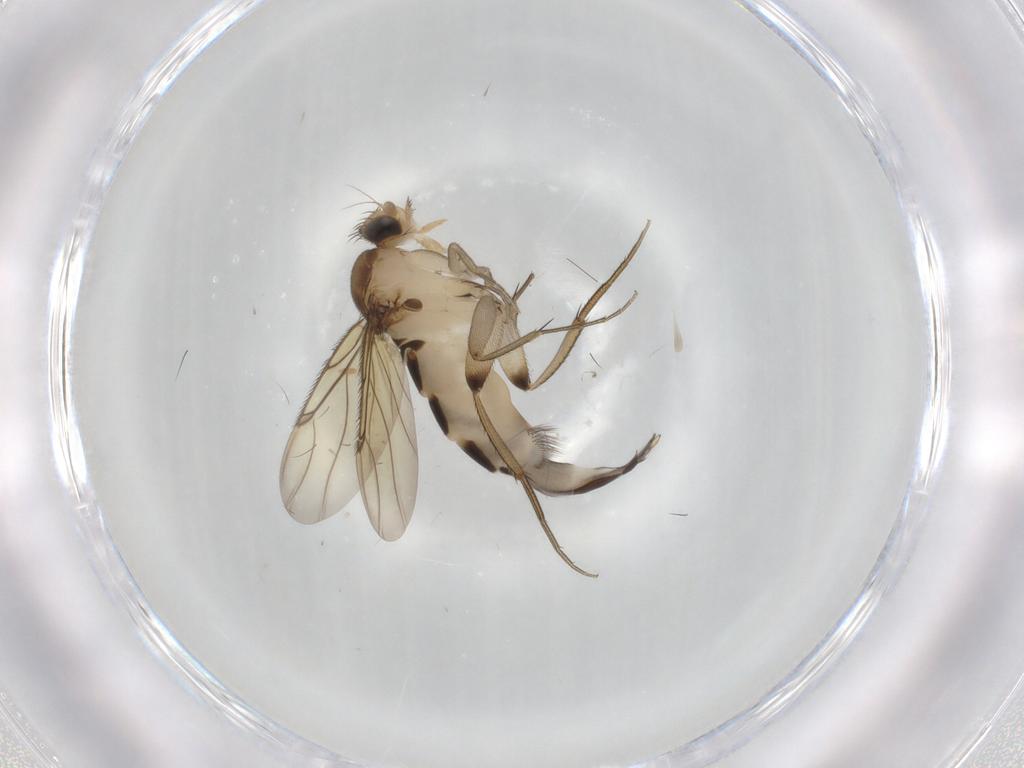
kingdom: Animalia
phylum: Arthropoda
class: Insecta
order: Diptera
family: Phoridae
